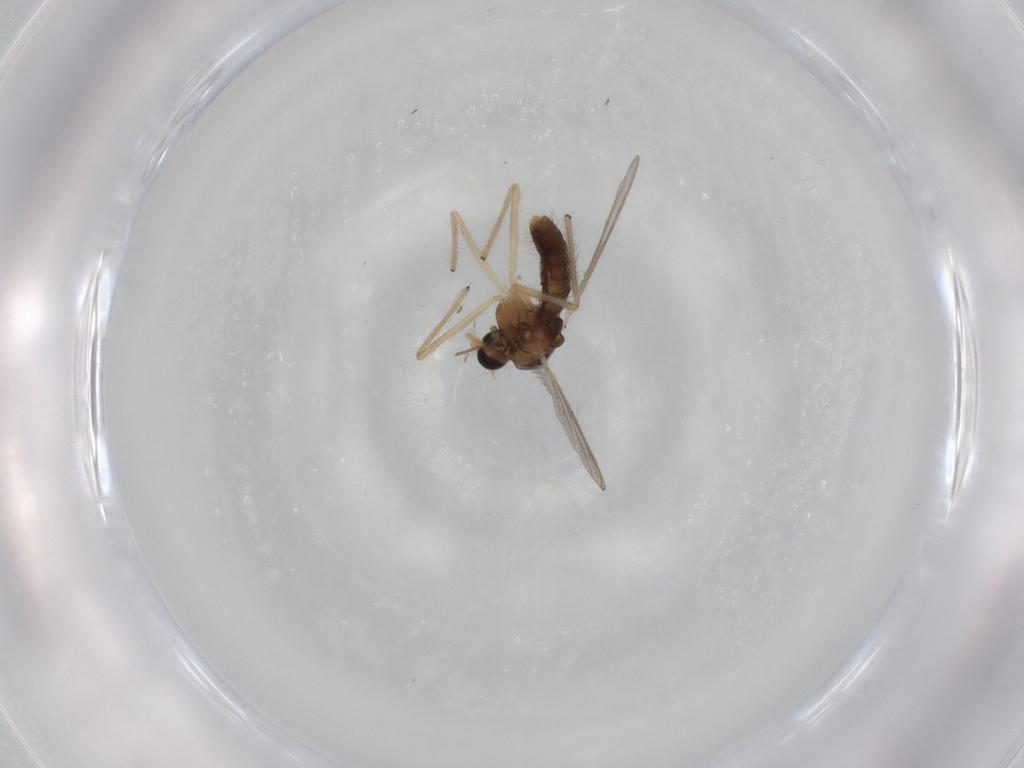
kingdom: Animalia
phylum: Arthropoda
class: Insecta
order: Diptera
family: Chironomidae
